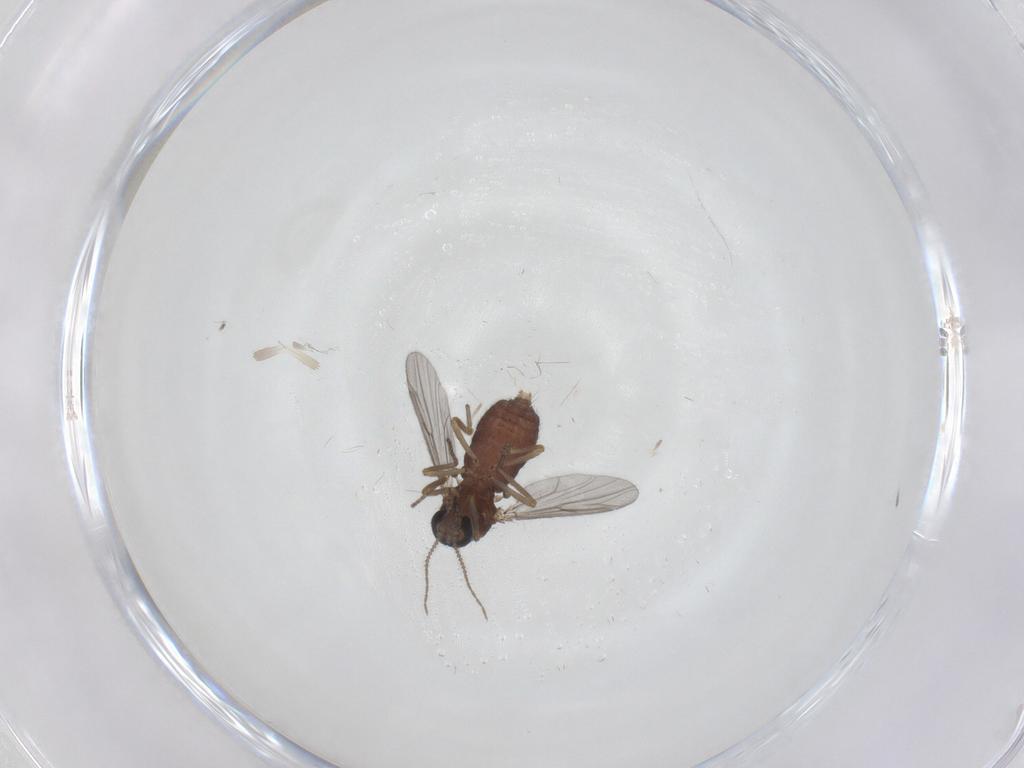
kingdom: Animalia
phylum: Arthropoda
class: Insecta
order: Diptera
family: Ceratopogonidae
